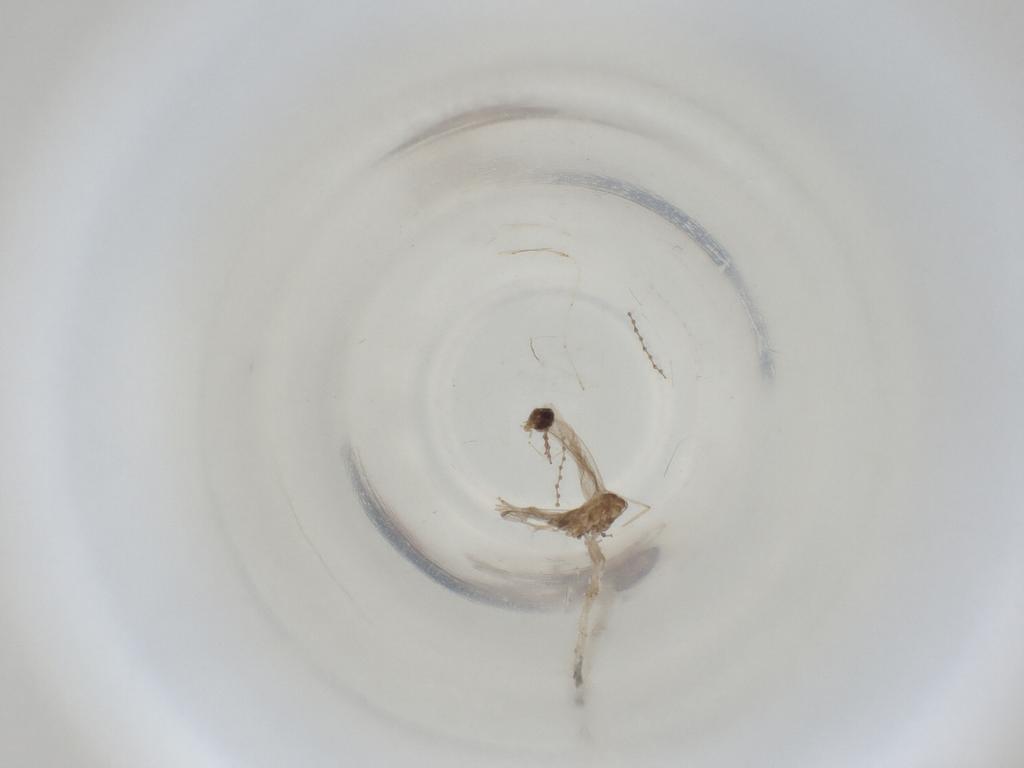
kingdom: Animalia
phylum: Arthropoda
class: Insecta
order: Diptera
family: Cecidomyiidae
